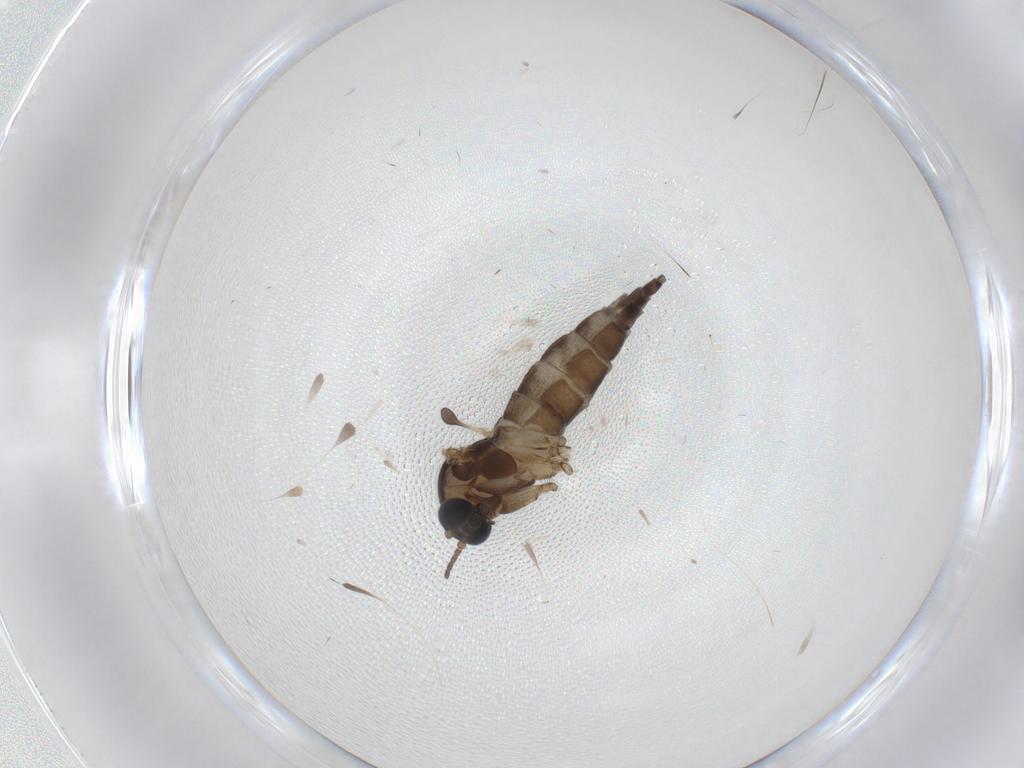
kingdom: Animalia
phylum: Arthropoda
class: Insecta
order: Diptera
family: Sciaridae
